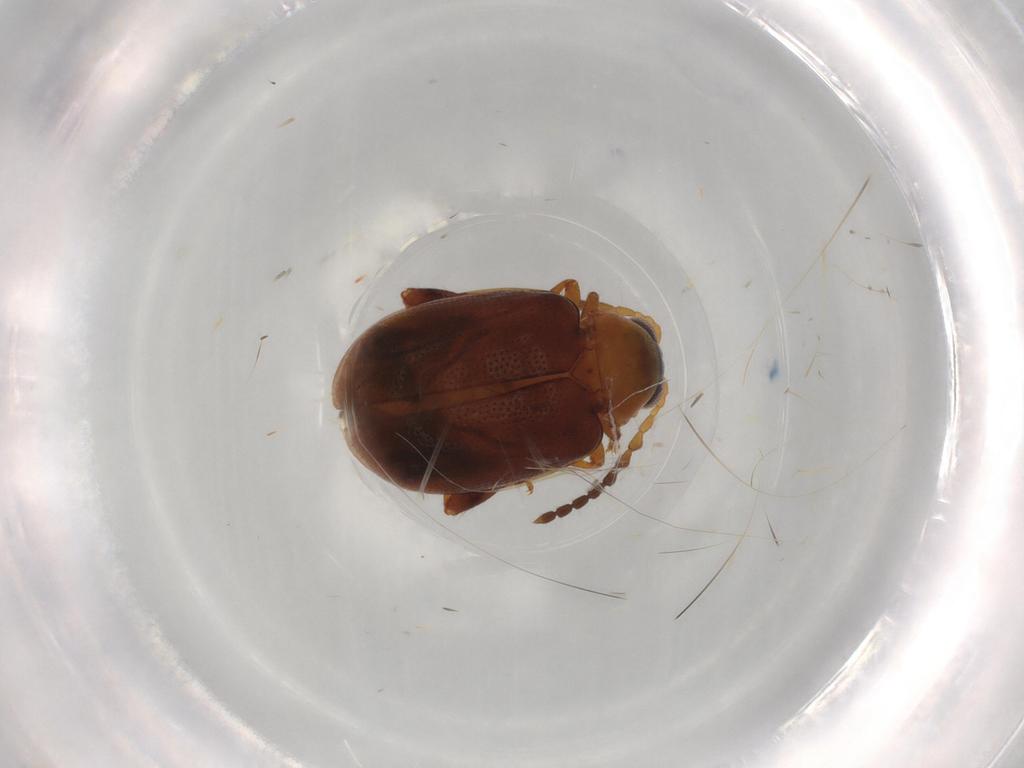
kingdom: Animalia
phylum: Arthropoda
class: Insecta
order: Coleoptera
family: Chrysomelidae
